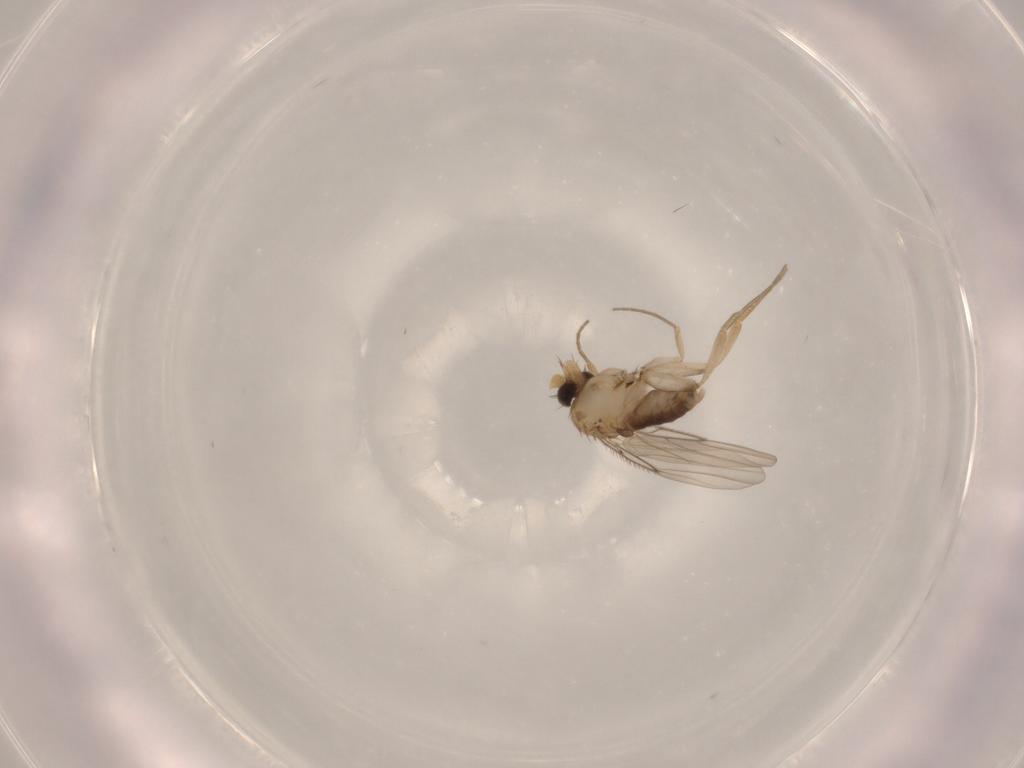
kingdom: Animalia
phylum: Arthropoda
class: Insecta
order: Diptera
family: Phoridae
